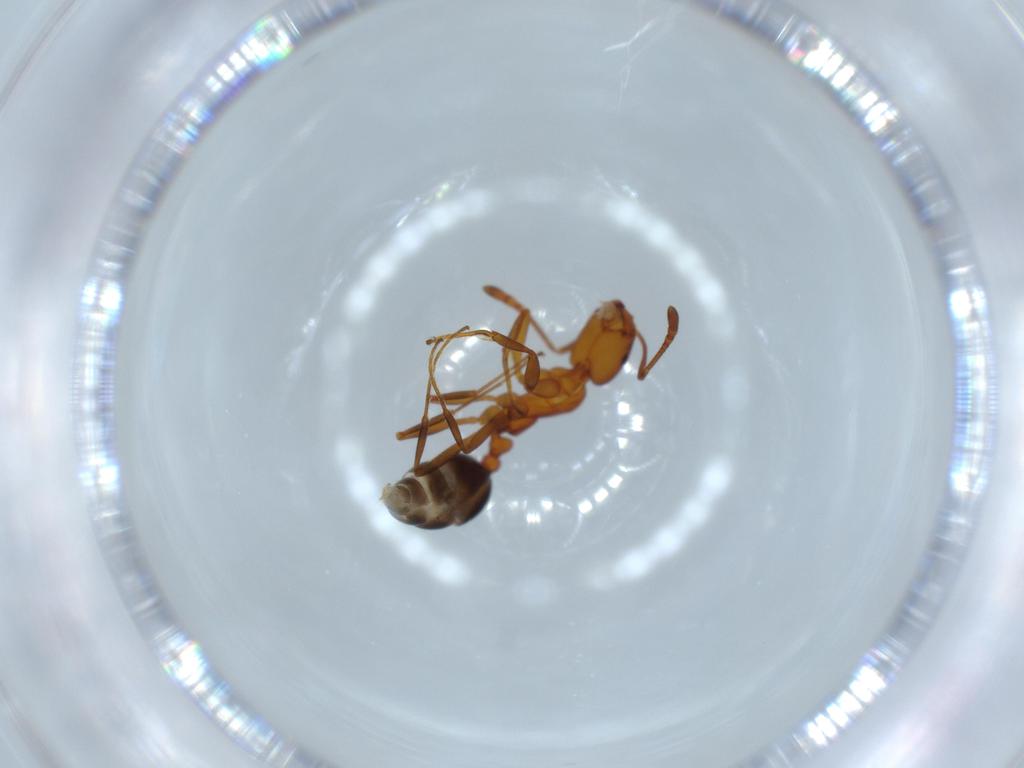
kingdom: Animalia
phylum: Arthropoda
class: Insecta
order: Hymenoptera
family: Formicidae
